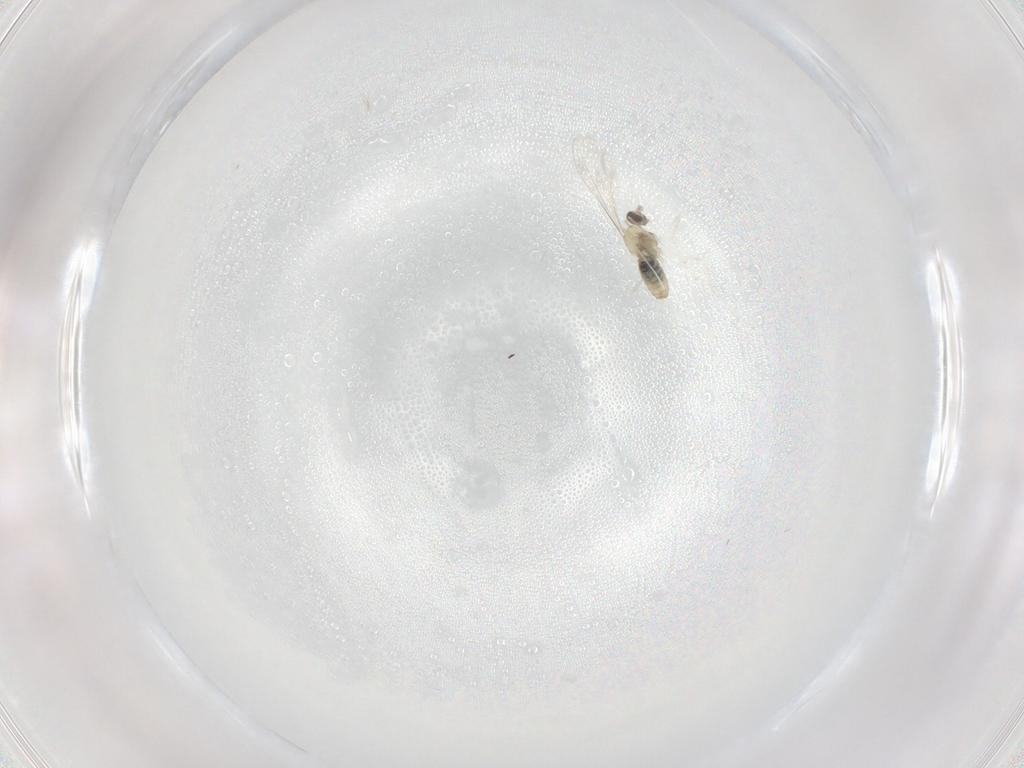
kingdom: Animalia
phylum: Arthropoda
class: Insecta
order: Diptera
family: Cecidomyiidae
